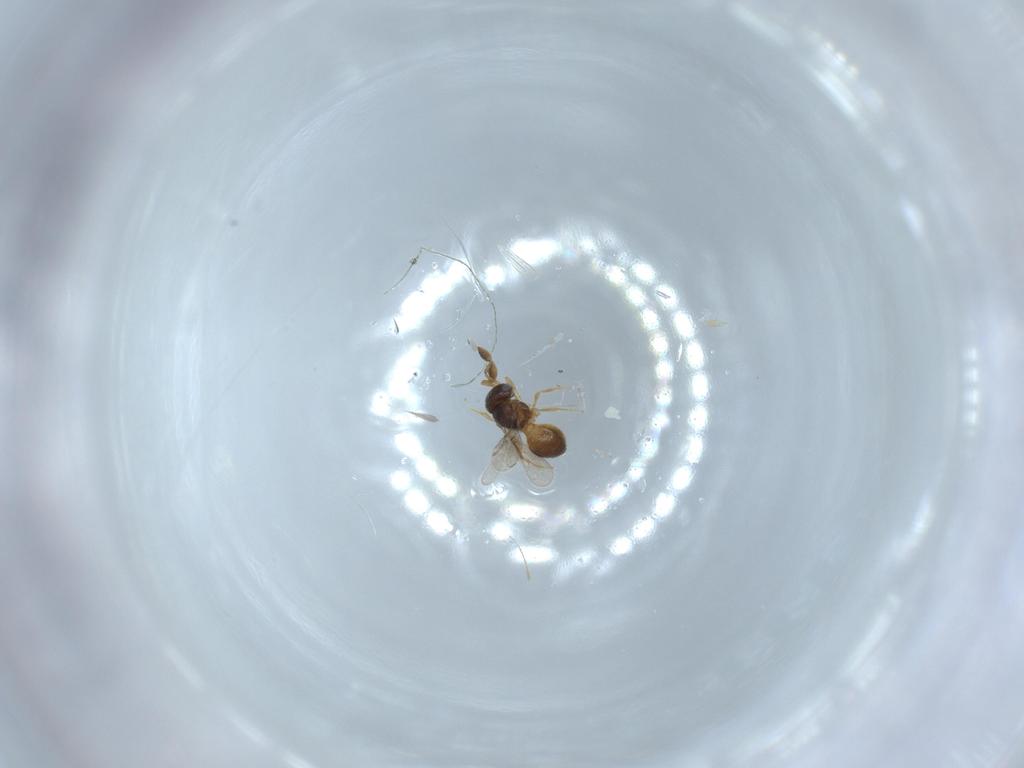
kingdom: Animalia
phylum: Arthropoda
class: Insecta
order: Hymenoptera
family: Scelionidae
